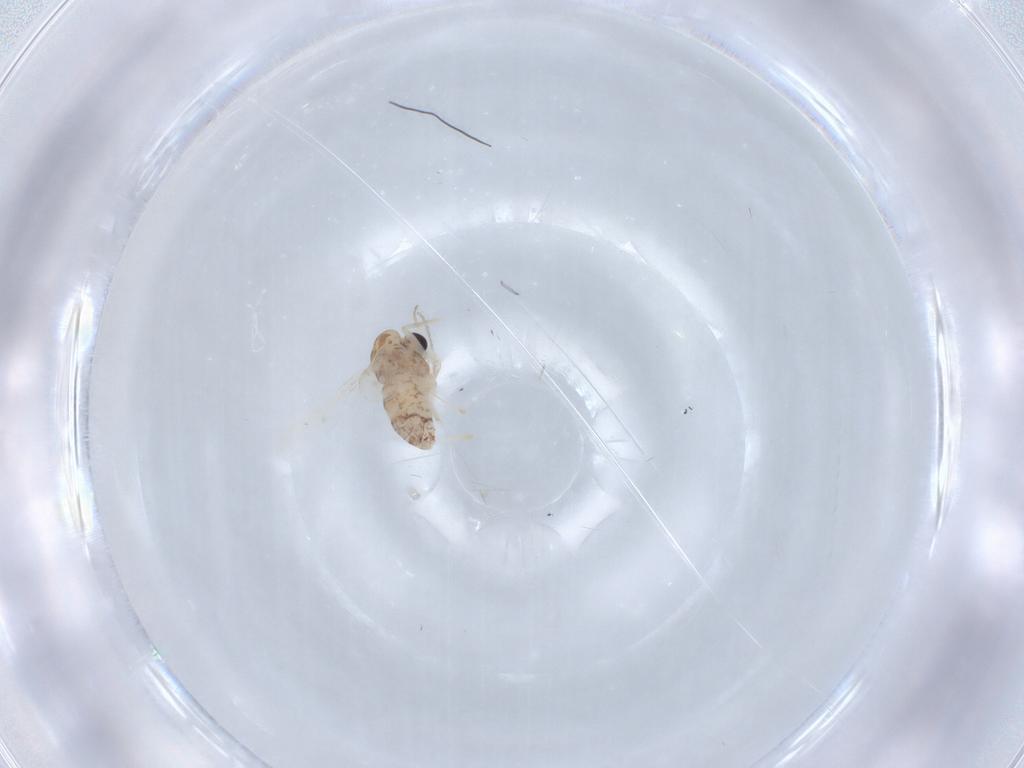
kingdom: Animalia
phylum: Arthropoda
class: Insecta
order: Diptera
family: Chironomidae
